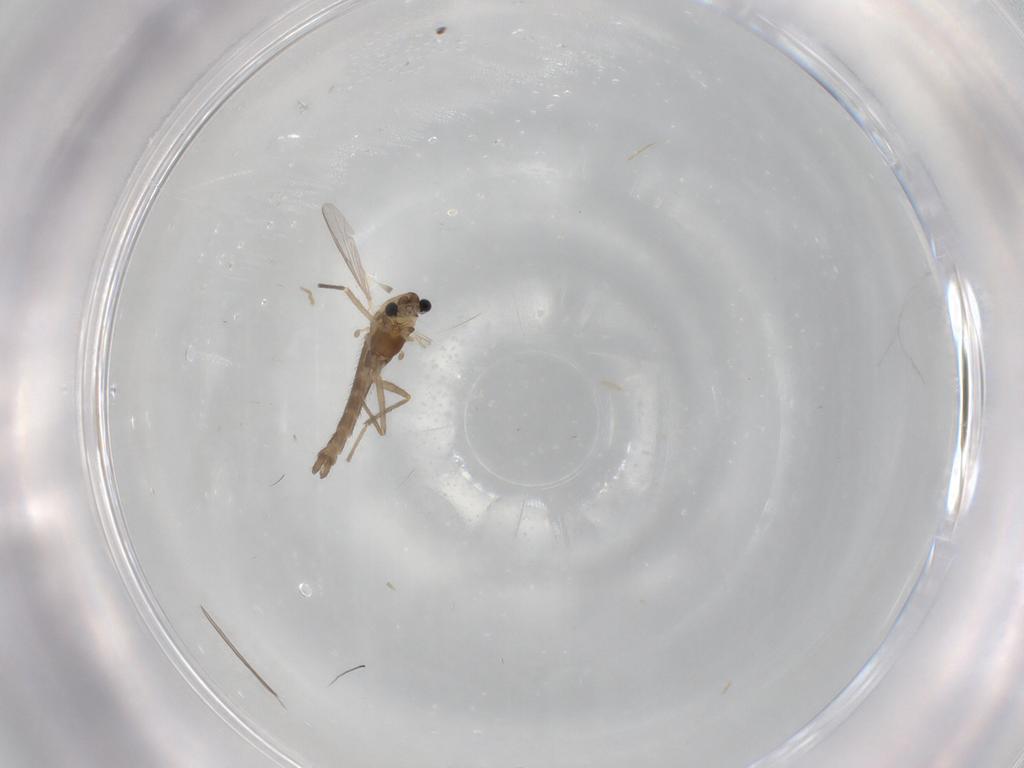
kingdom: Animalia
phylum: Arthropoda
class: Insecta
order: Diptera
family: Chironomidae
